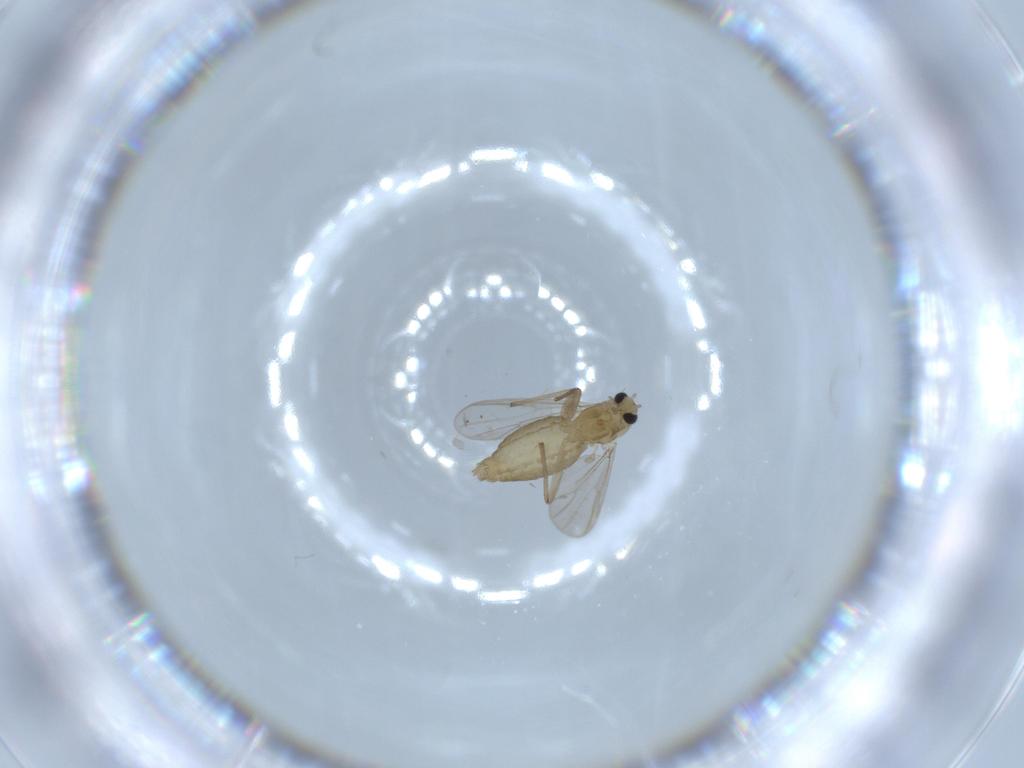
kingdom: Animalia
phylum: Arthropoda
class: Insecta
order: Diptera
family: Chironomidae
